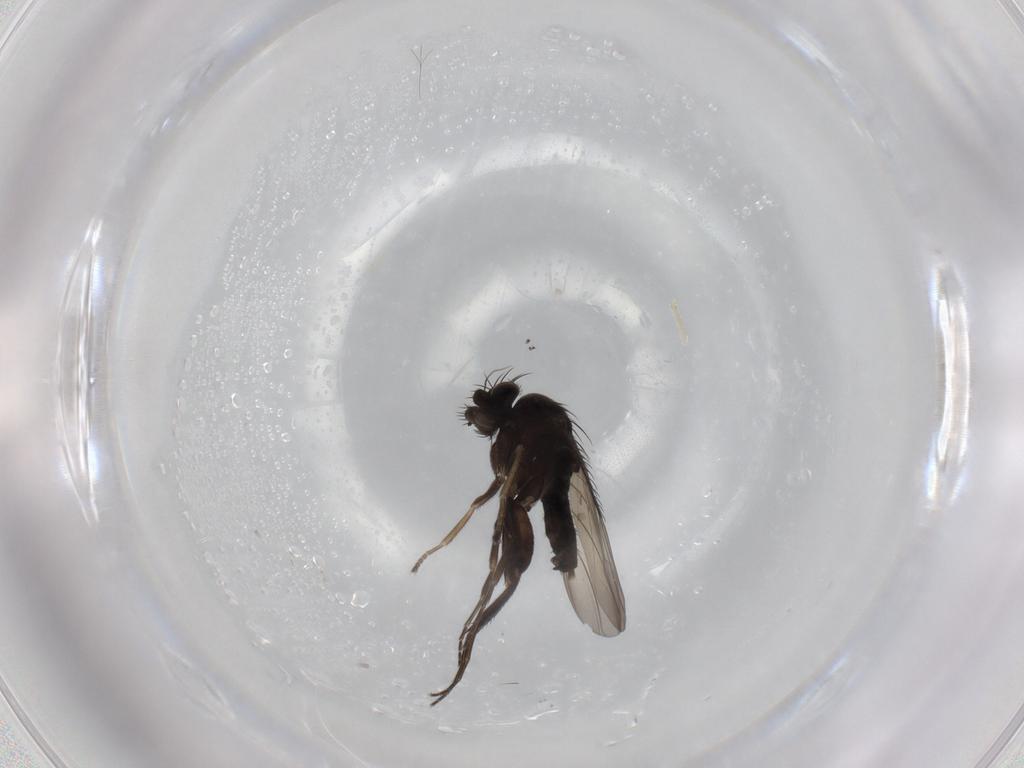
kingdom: Animalia
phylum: Arthropoda
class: Insecta
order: Diptera
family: Phoridae
